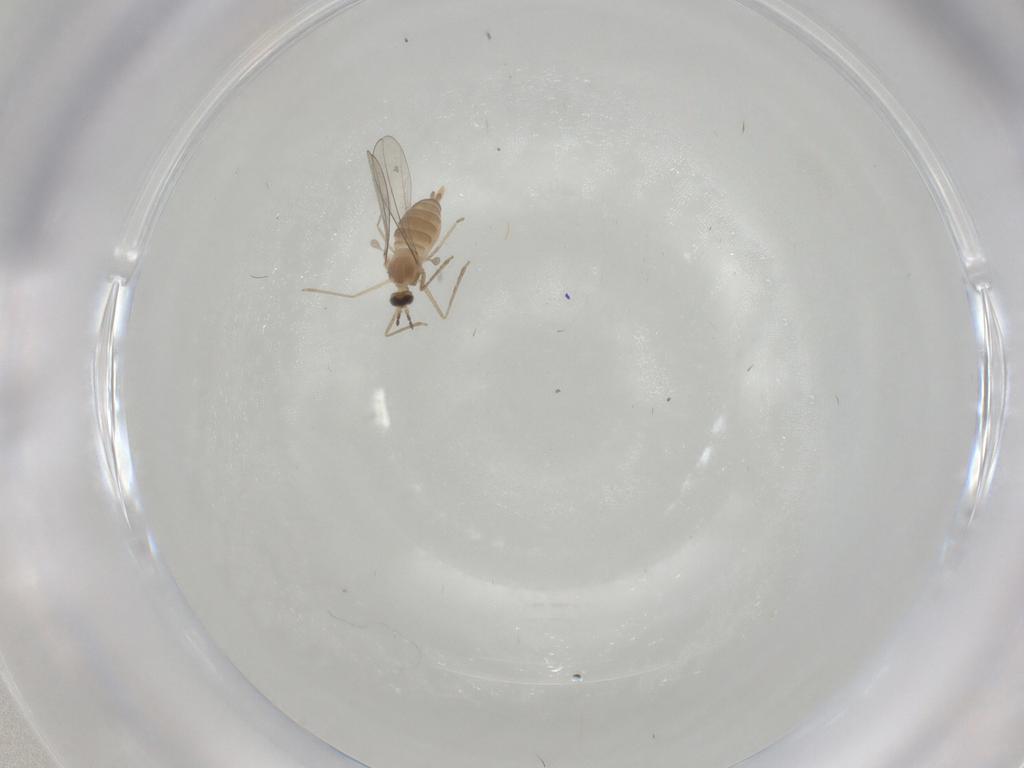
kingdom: Animalia
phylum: Arthropoda
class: Insecta
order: Diptera
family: Cecidomyiidae
